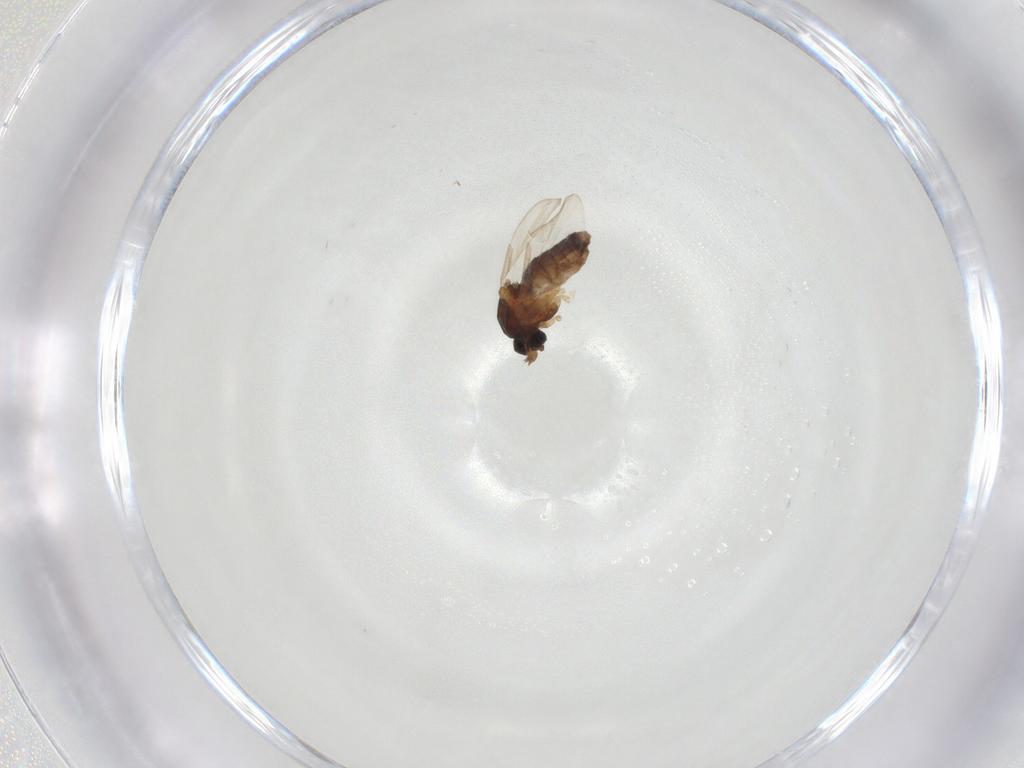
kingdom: Animalia
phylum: Arthropoda
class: Insecta
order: Diptera
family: Ceratopogonidae
